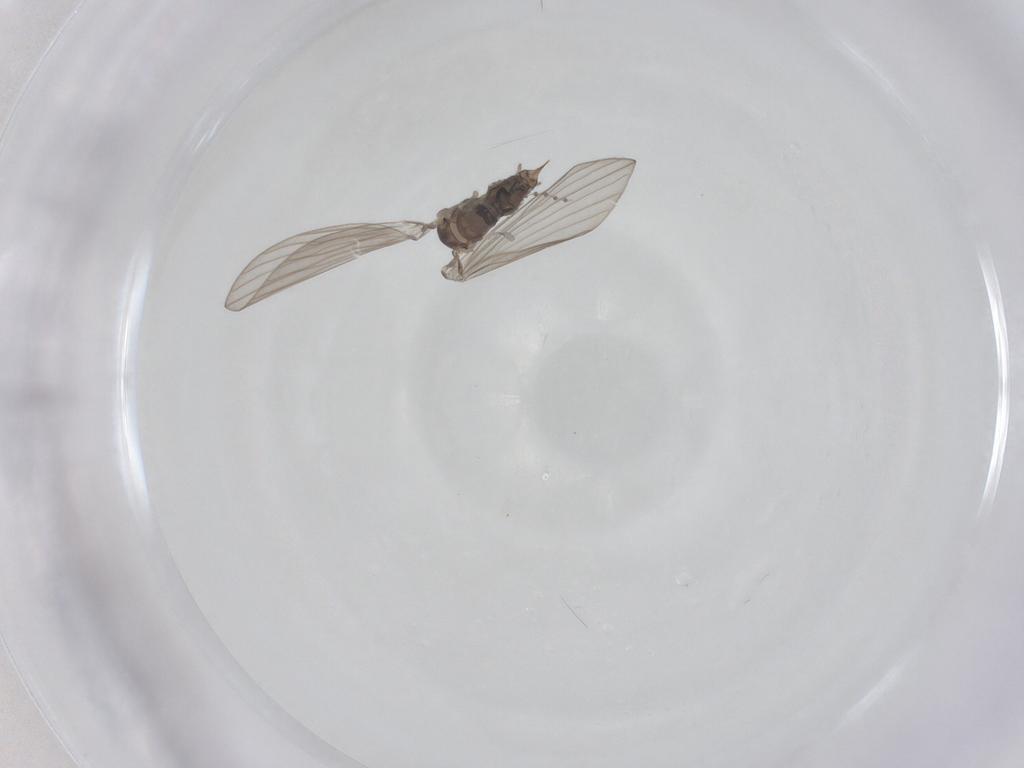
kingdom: Animalia
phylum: Arthropoda
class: Insecta
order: Diptera
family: Psychodidae
